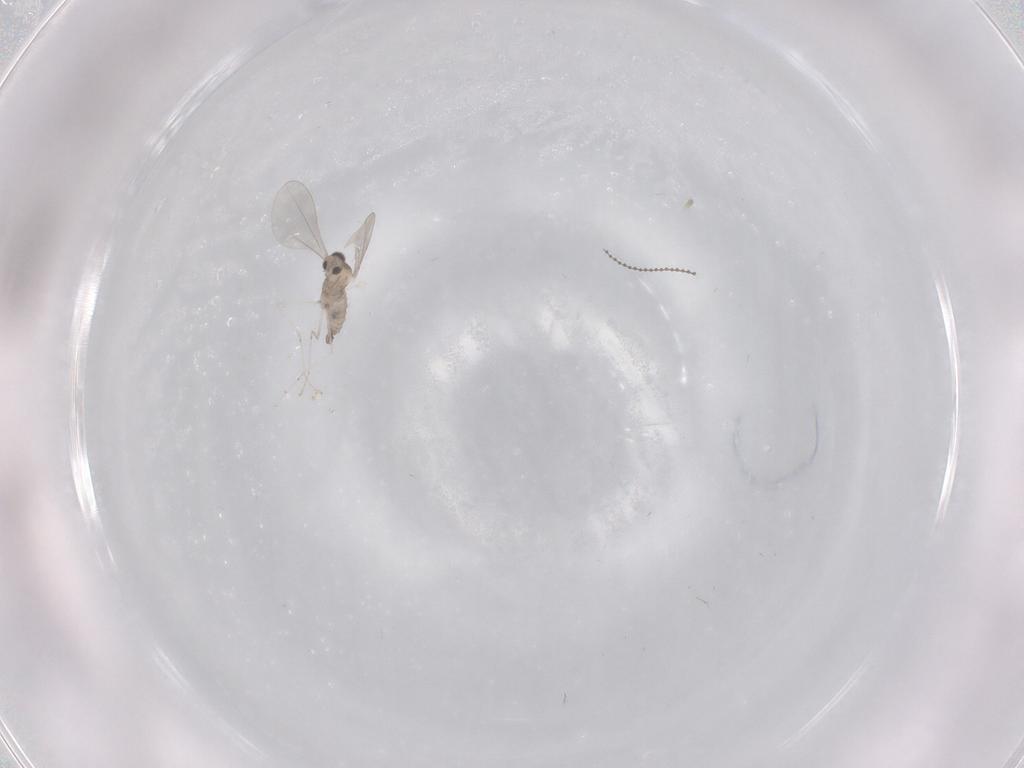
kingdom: Animalia
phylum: Arthropoda
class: Insecta
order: Diptera
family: Cecidomyiidae
